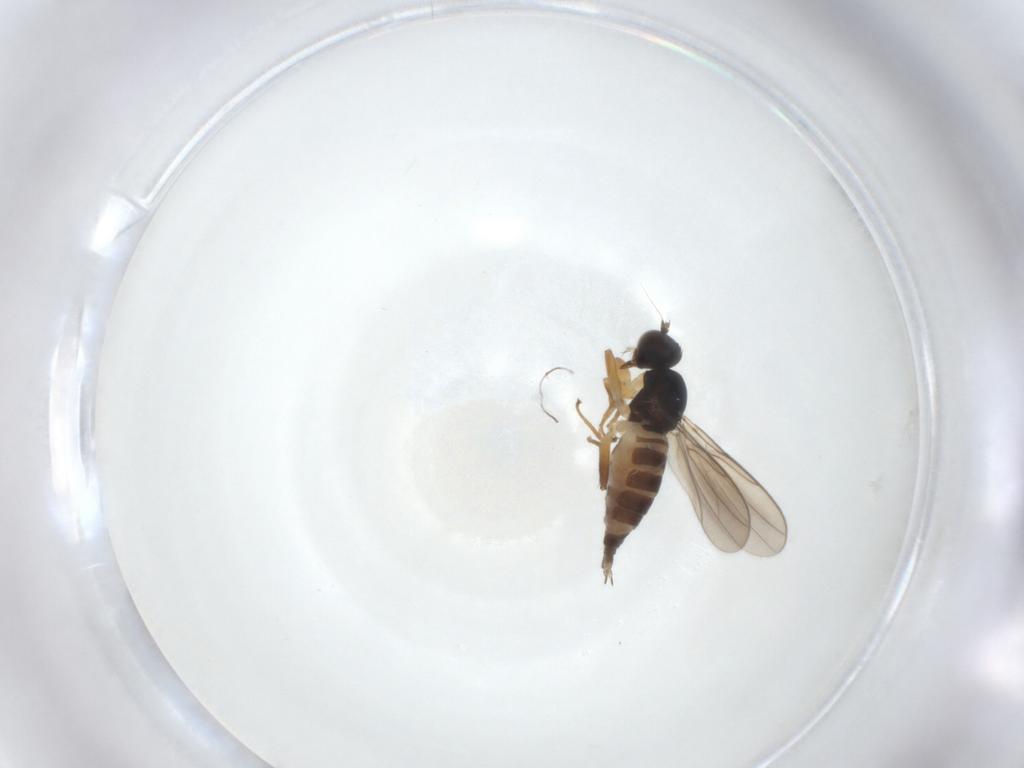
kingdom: Animalia
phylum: Arthropoda
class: Insecta
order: Diptera
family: Hybotidae
